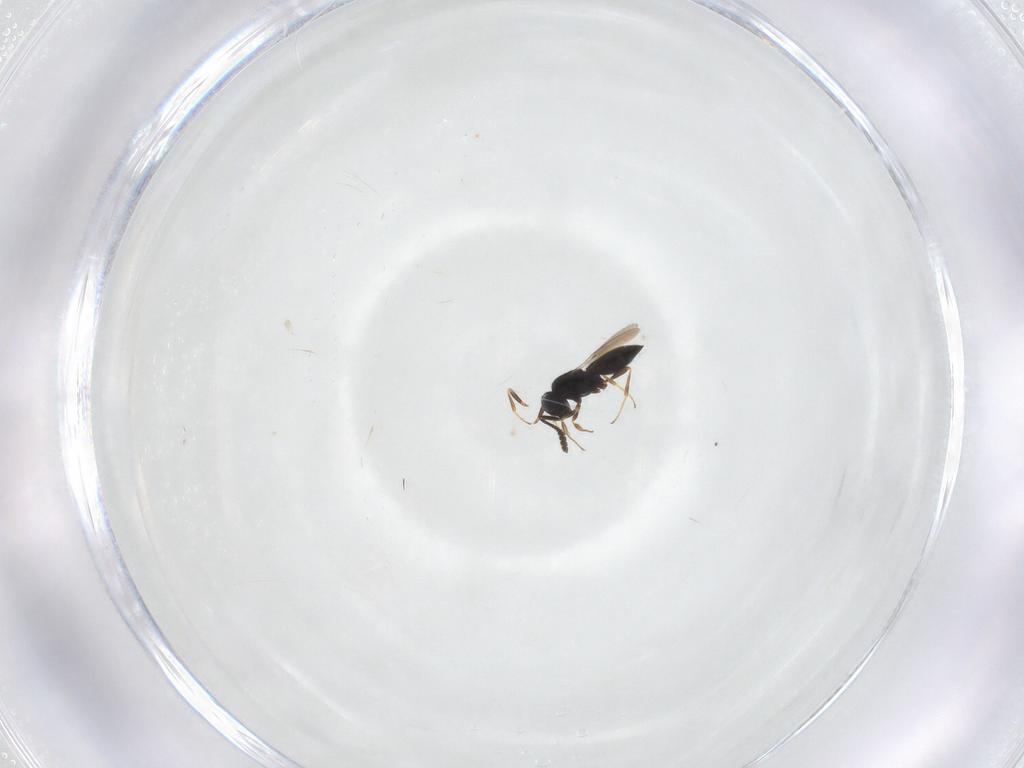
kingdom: Animalia
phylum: Arthropoda
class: Insecta
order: Hymenoptera
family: Scelionidae
